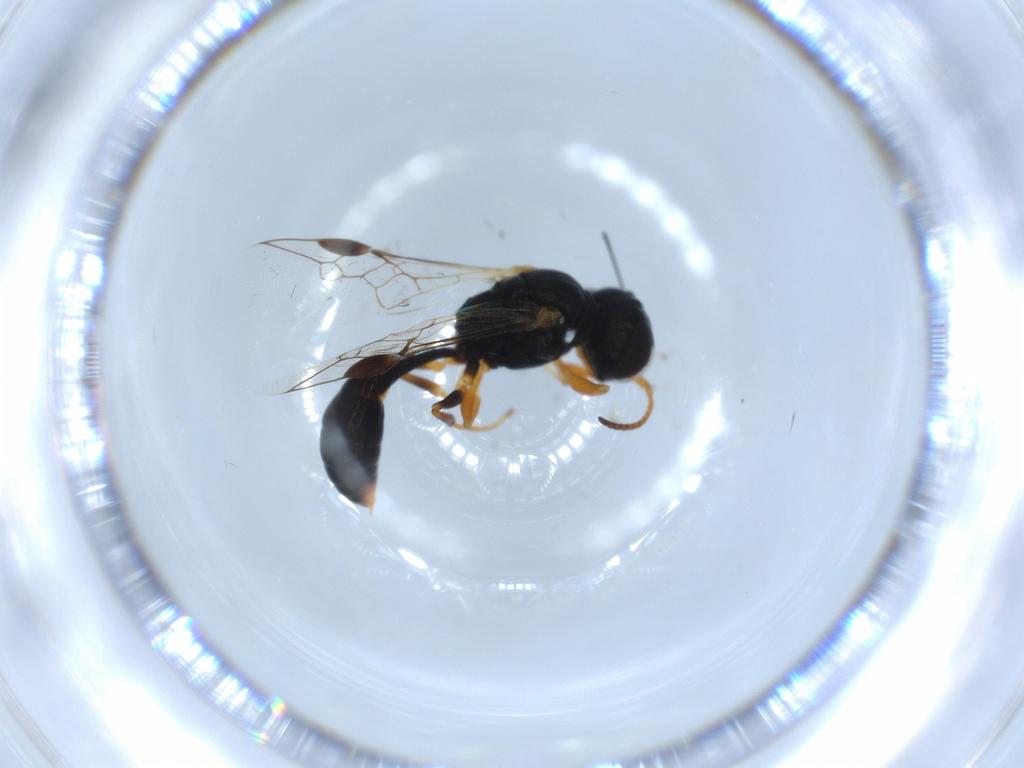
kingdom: Animalia
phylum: Arthropoda
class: Insecta
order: Hymenoptera
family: Crabronidae
